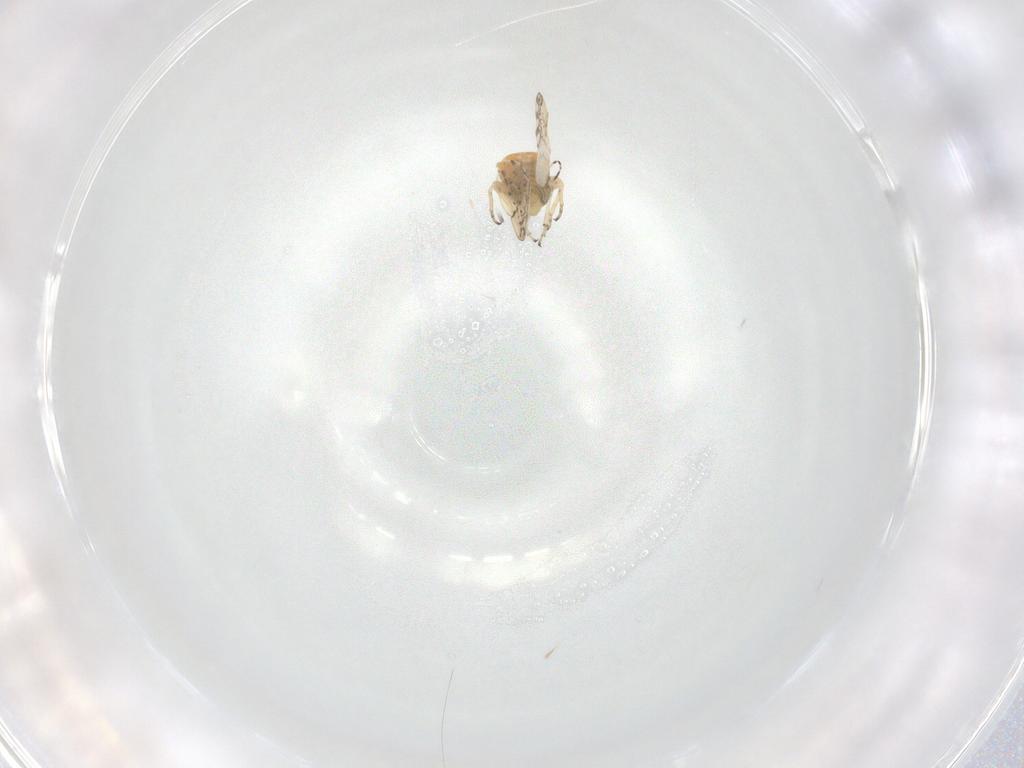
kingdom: Animalia
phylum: Arthropoda
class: Insecta
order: Hemiptera
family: Psylloidea_incertae_sedis
